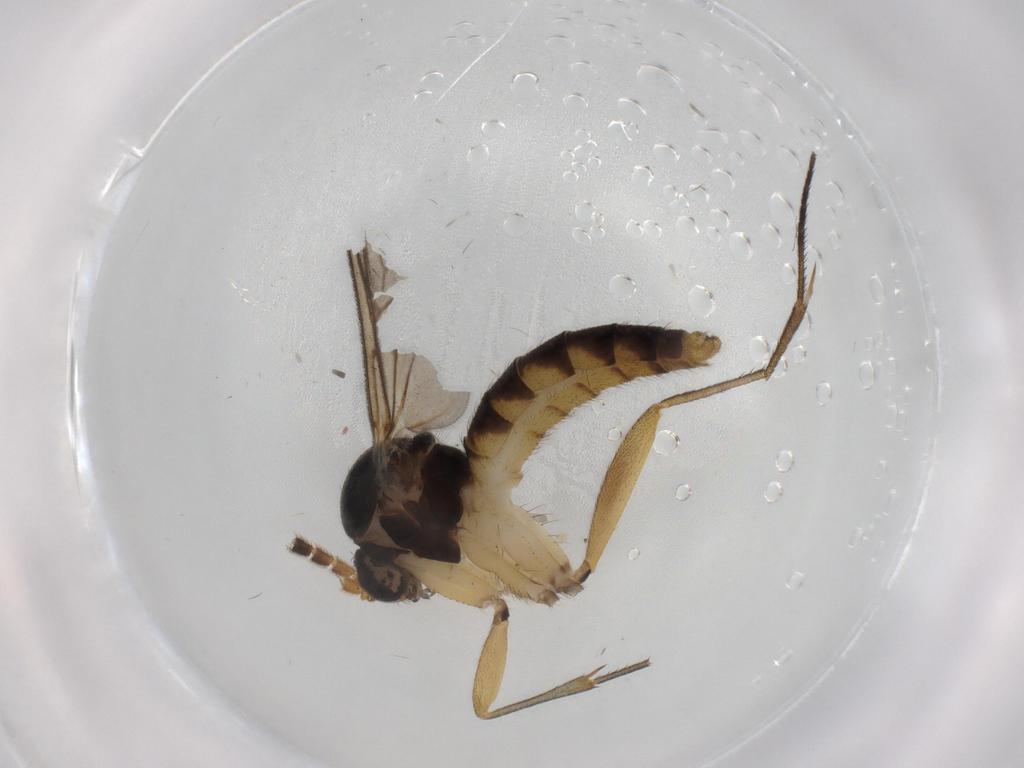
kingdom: Animalia
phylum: Arthropoda
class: Insecta
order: Diptera
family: Mycetophilidae
